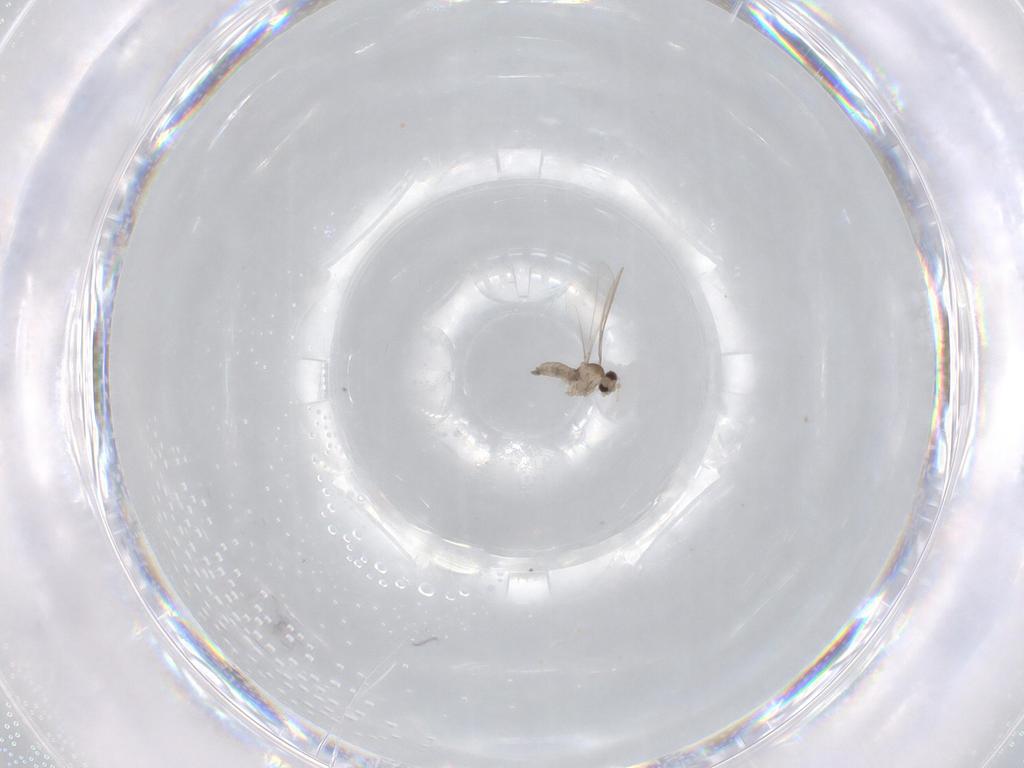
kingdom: Animalia
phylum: Arthropoda
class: Insecta
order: Diptera
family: Cecidomyiidae
